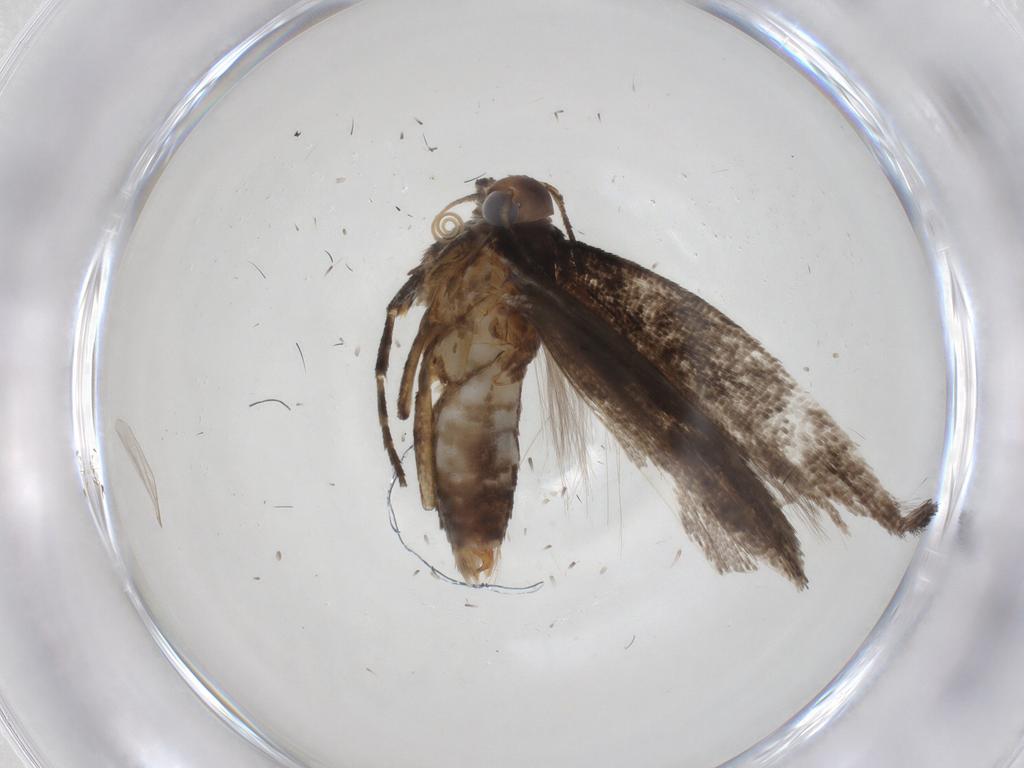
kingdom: Animalia
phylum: Arthropoda
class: Insecta
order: Lepidoptera
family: Gelechiidae
